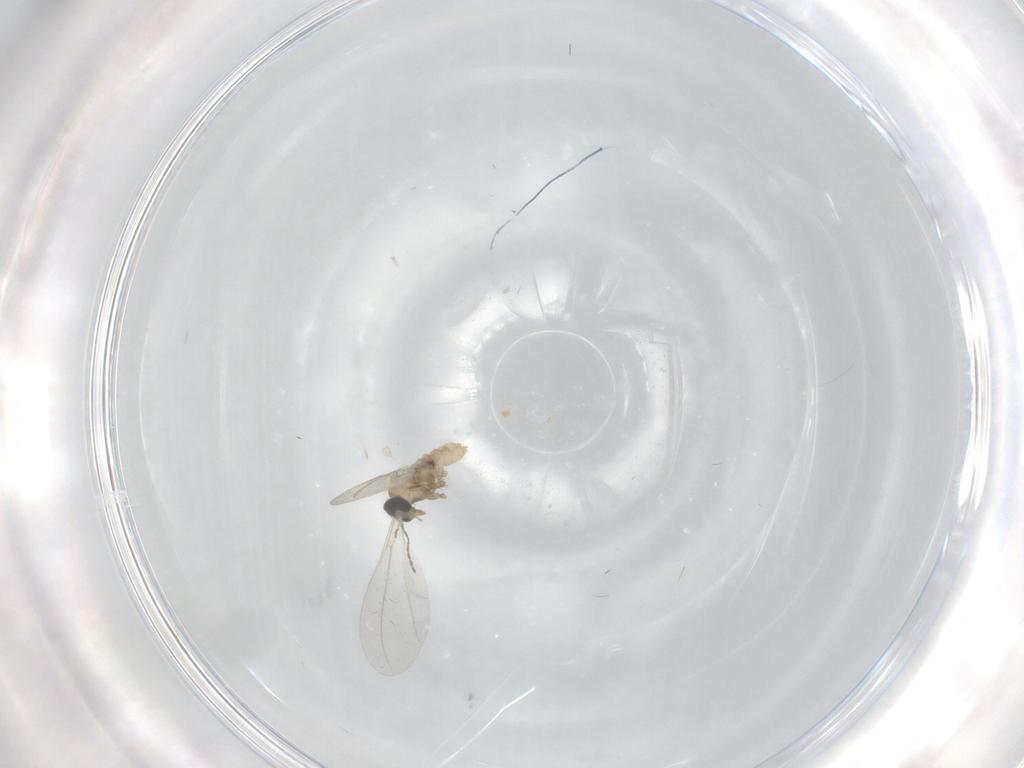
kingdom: Animalia
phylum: Arthropoda
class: Insecta
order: Diptera
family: Cecidomyiidae
